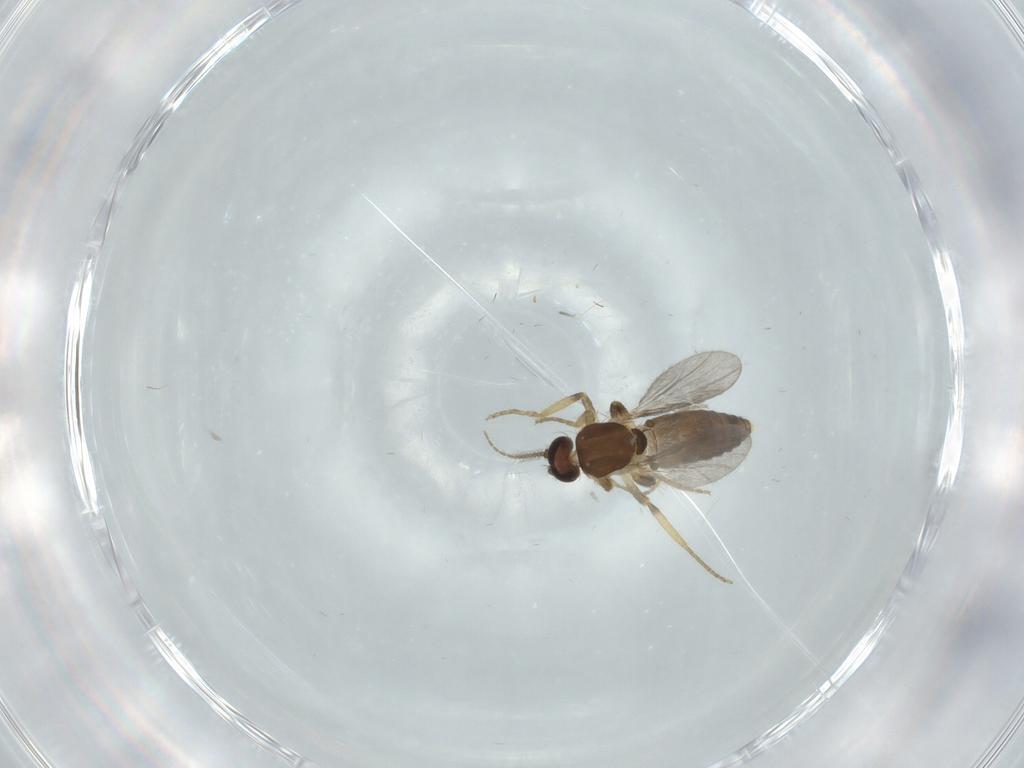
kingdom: Animalia
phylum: Arthropoda
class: Insecta
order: Diptera
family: Ceratopogonidae
